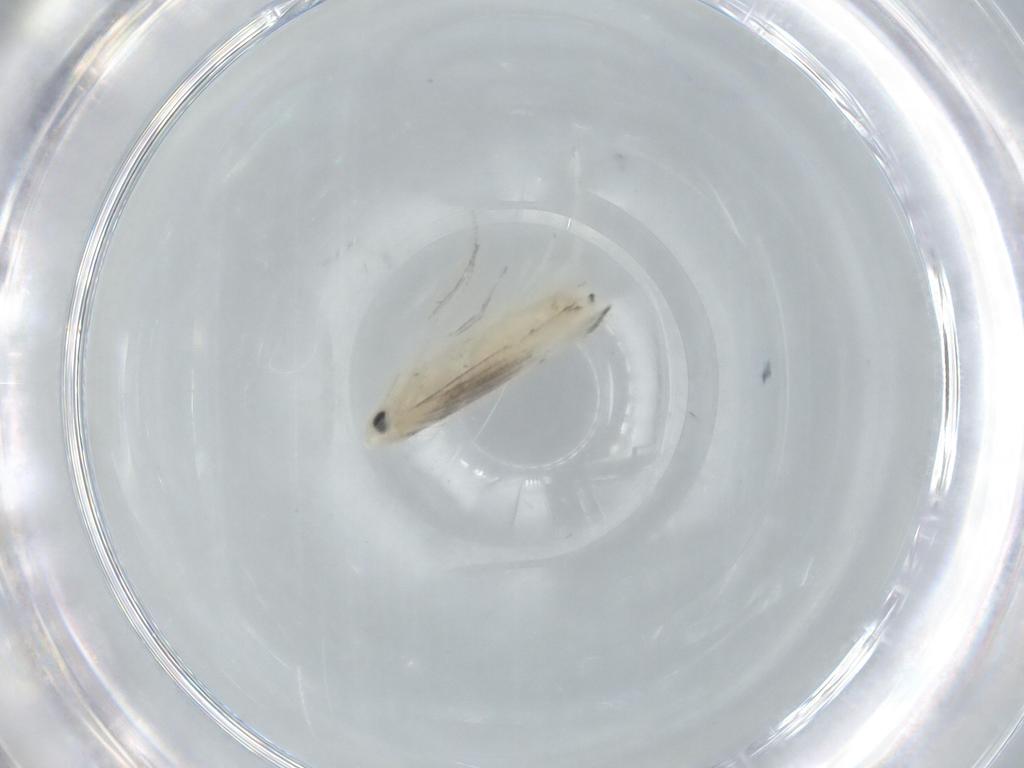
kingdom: Animalia
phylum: Arthropoda
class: Insecta
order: Lepidoptera
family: Gracillariidae
